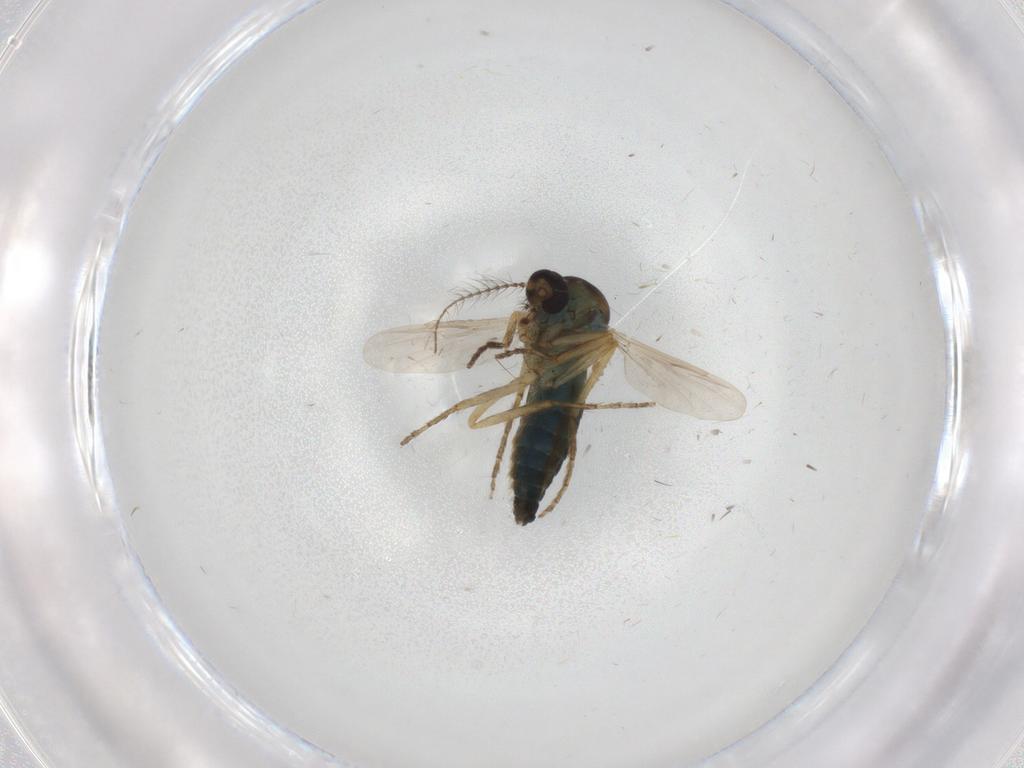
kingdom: Animalia
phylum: Arthropoda
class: Insecta
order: Diptera
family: Ceratopogonidae
